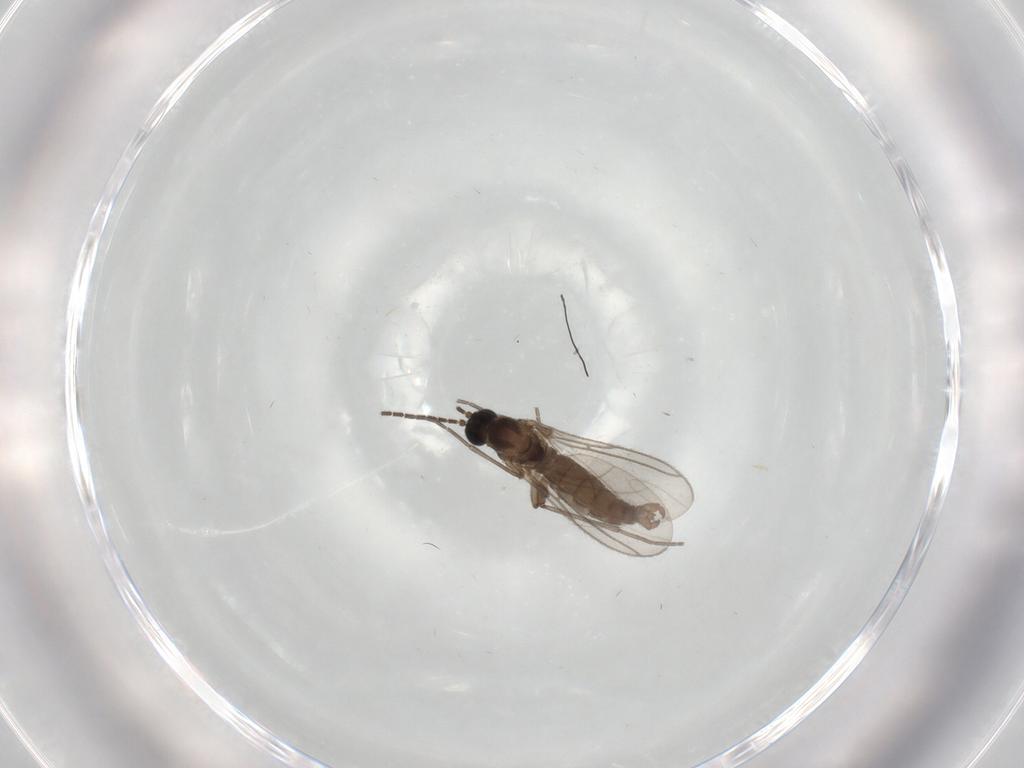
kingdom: Animalia
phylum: Arthropoda
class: Insecta
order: Diptera
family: Sciaridae
